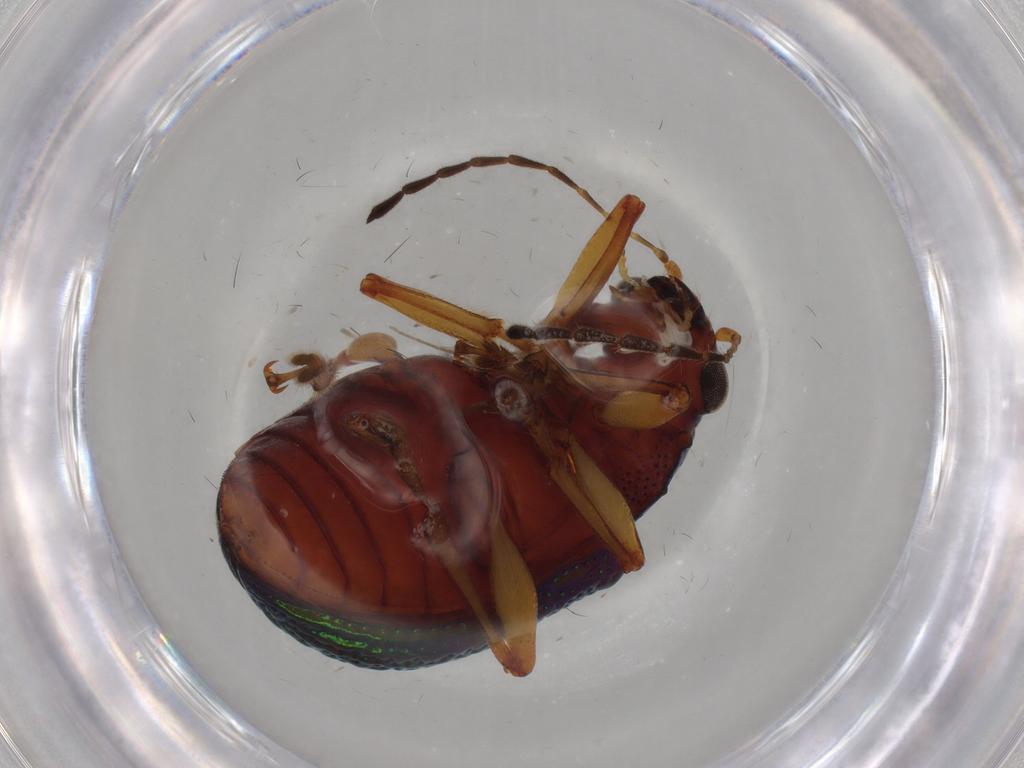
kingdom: Animalia
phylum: Arthropoda
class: Insecta
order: Coleoptera
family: Chrysomelidae
